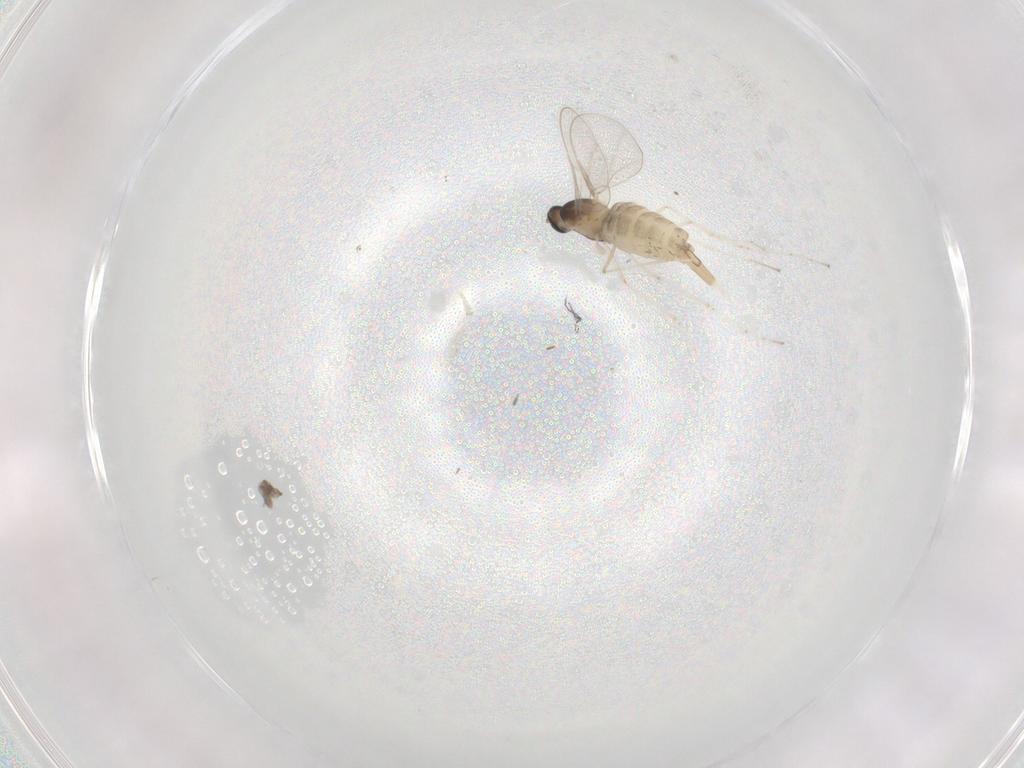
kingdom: Animalia
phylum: Arthropoda
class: Insecta
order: Diptera
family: Cecidomyiidae
